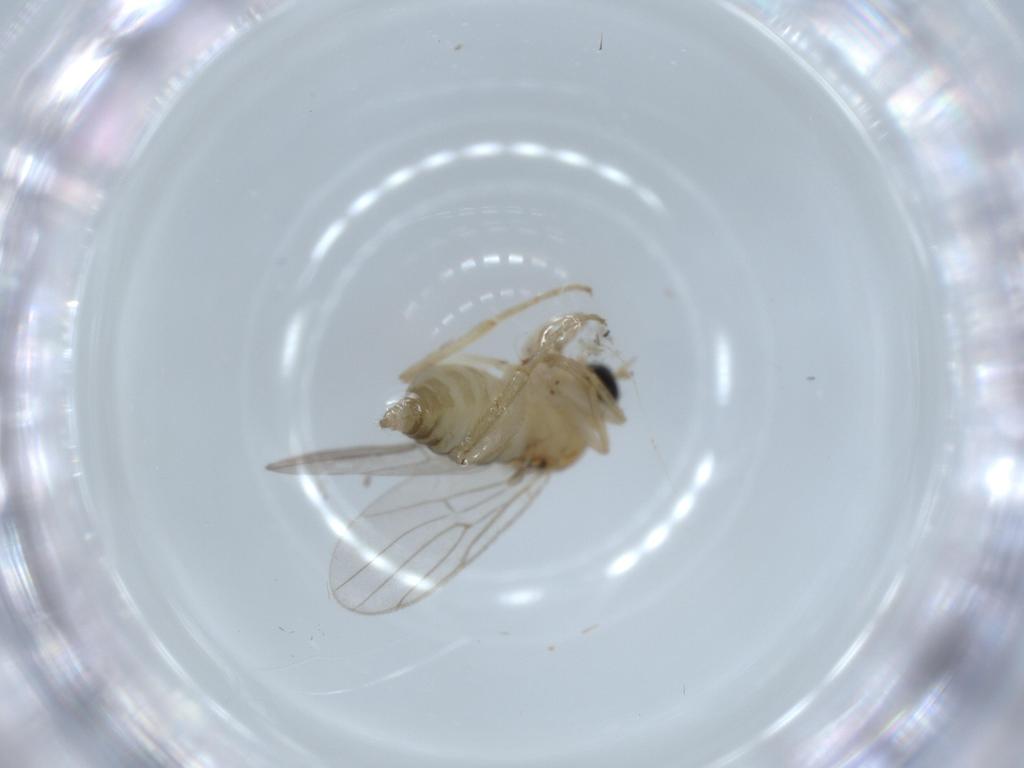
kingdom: Animalia
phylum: Arthropoda
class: Insecta
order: Diptera
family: Hybotidae
